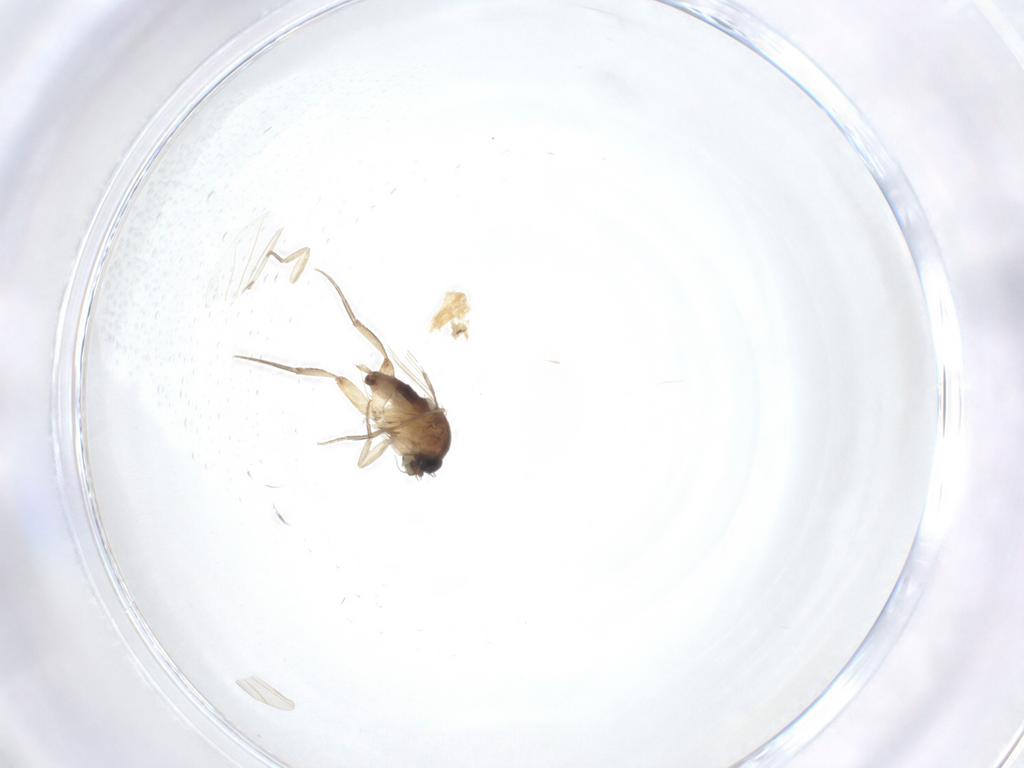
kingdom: Animalia
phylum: Arthropoda
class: Insecta
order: Diptera
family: Phoridae
